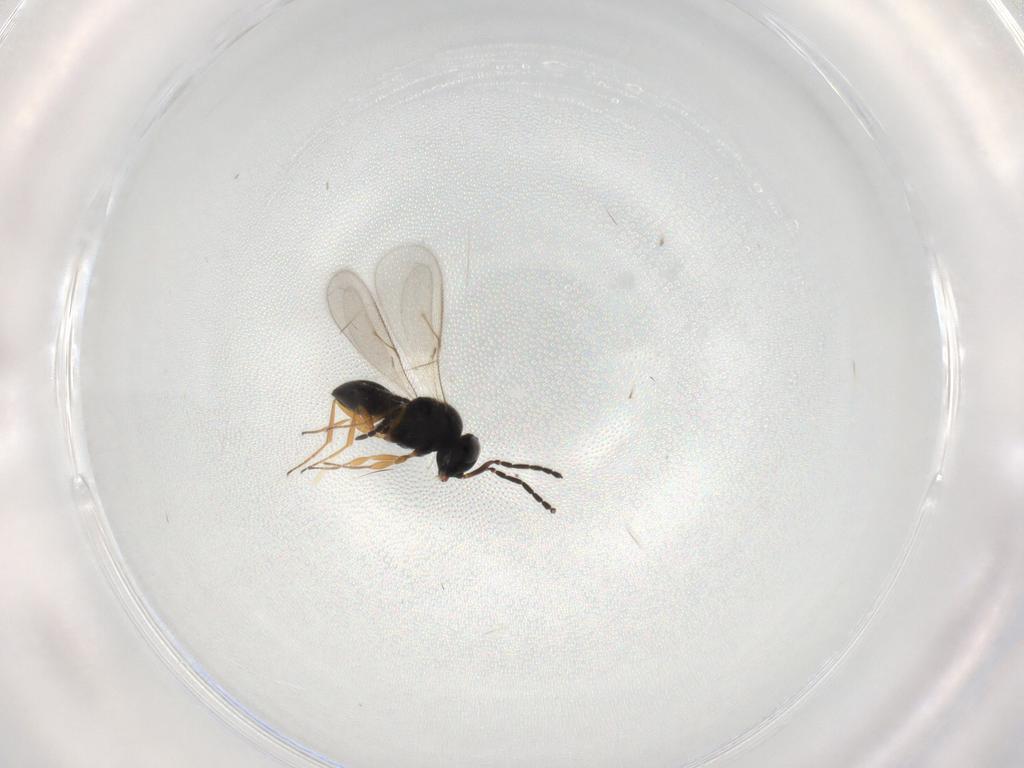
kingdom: Animalia
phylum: Arthropoda
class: Insecta
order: Hymenoptera
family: Scelionidae
